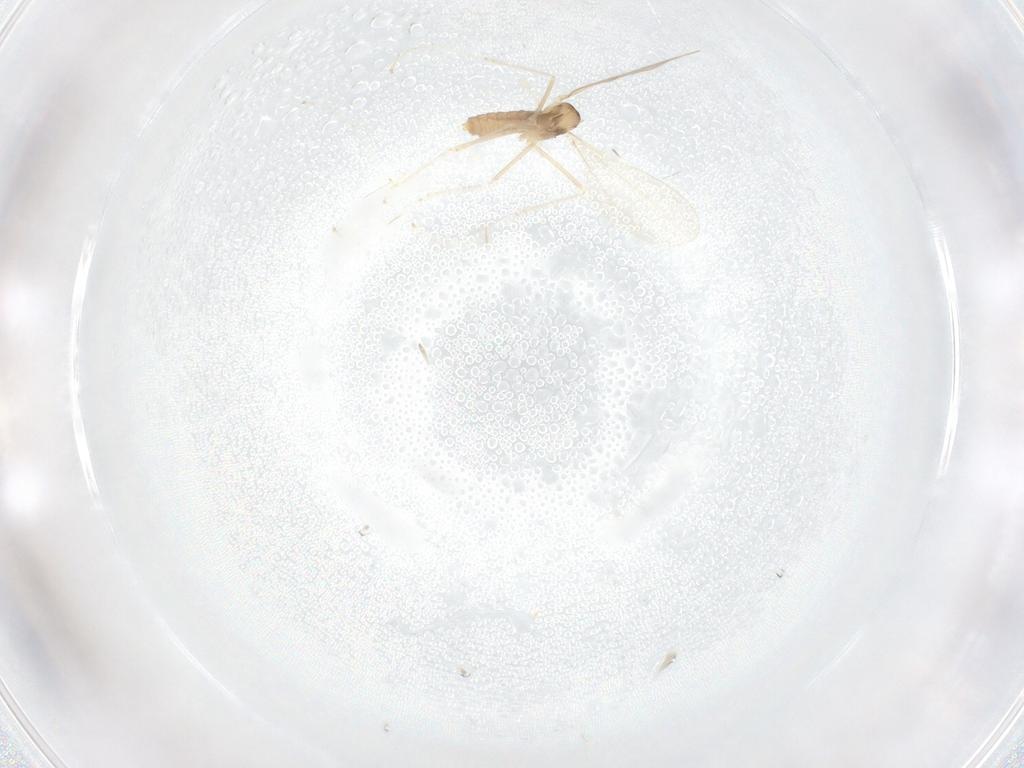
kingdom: Animalia
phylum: Arthropoda
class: Insecta
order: Diptera
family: Cecidomyiidae
